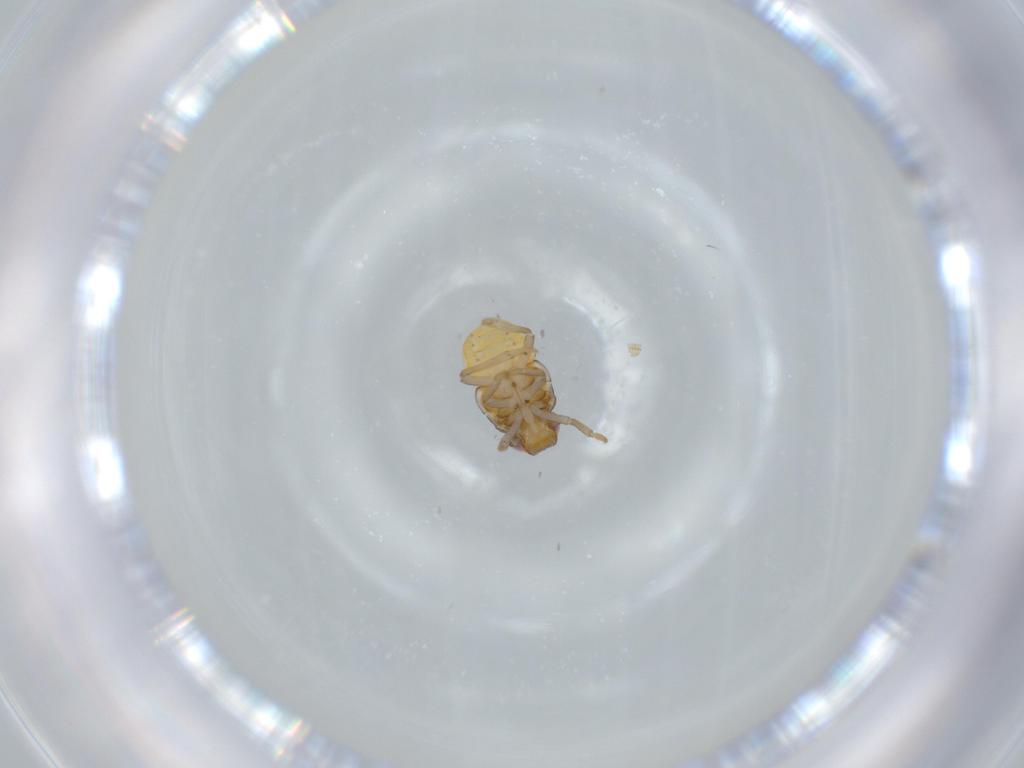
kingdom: Animalia
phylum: Arthropoda
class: Insecta
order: Hemiptera
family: Issidae
